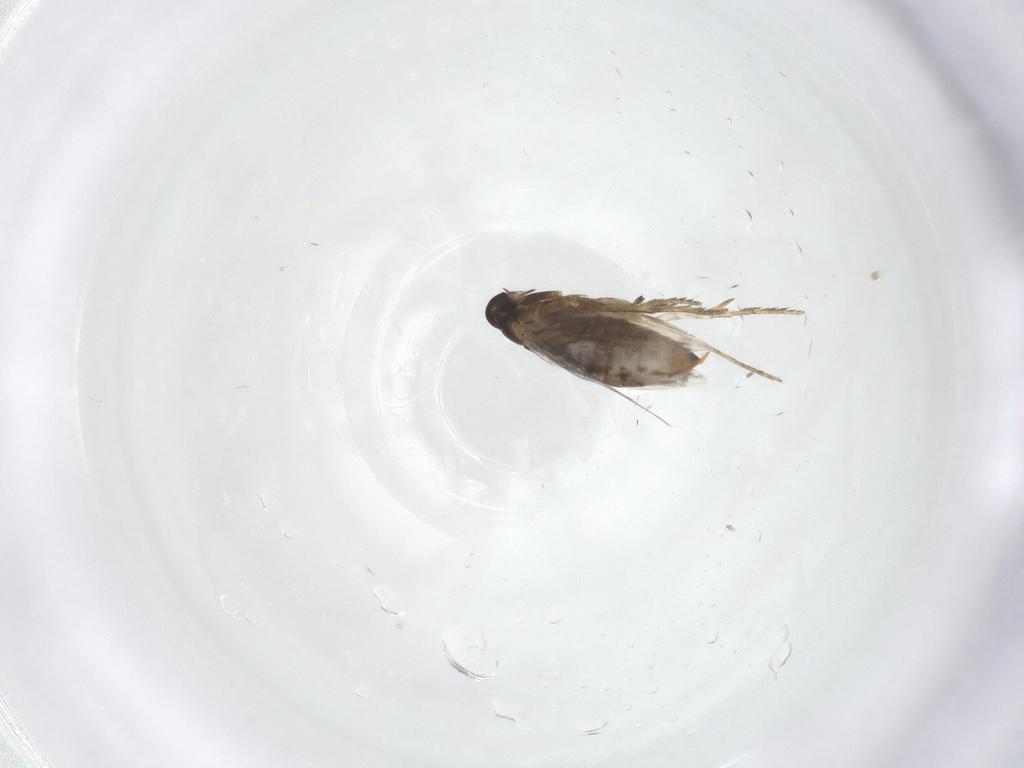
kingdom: Animalia
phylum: Arthropoda
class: Insecta
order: Lepidoptera
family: Heliozelidae
